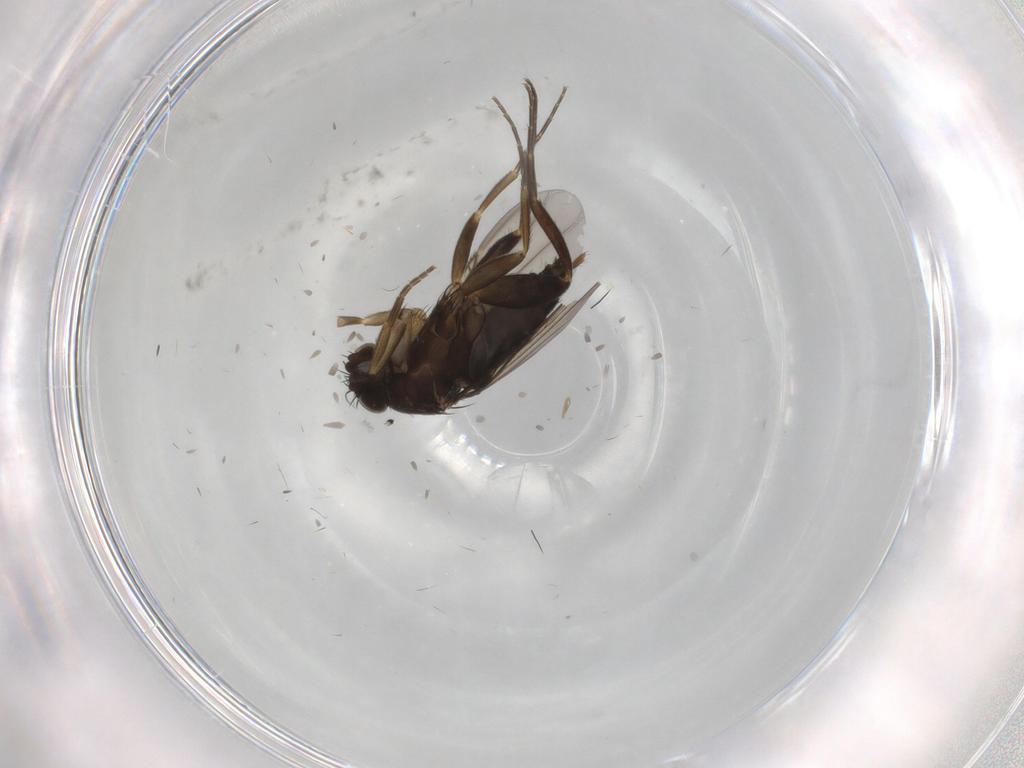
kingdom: Animalia
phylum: Arthropoda
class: Insecta
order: Diptera
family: Phoridae
